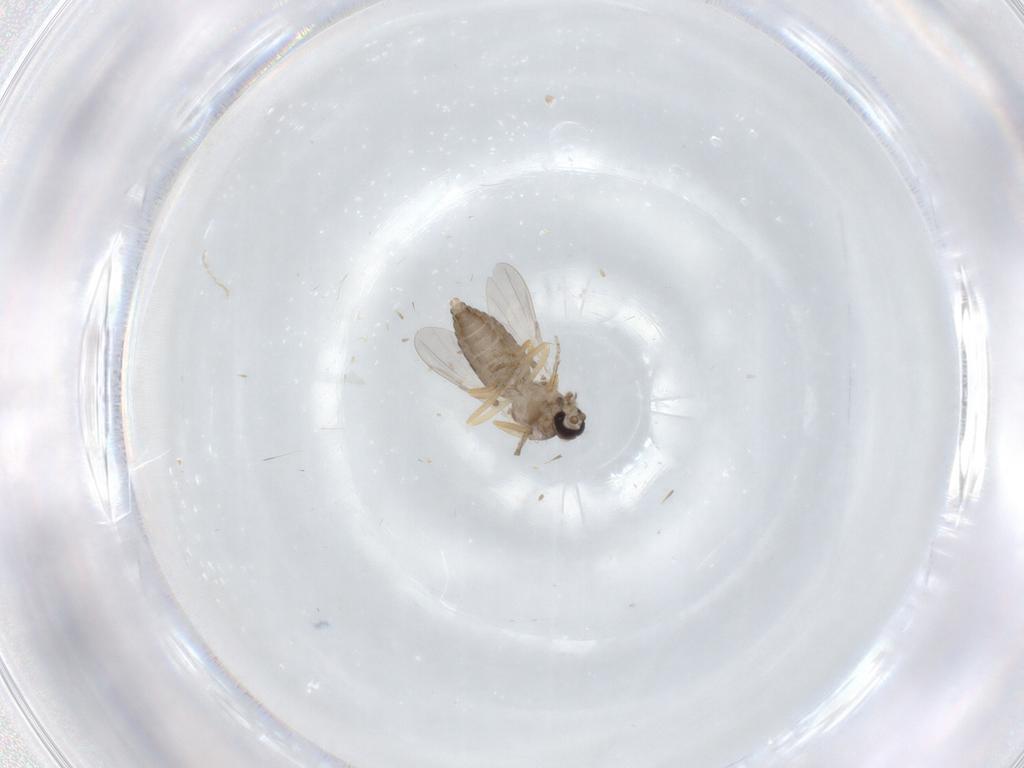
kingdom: Animalia
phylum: Arthropoda
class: Insecta
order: Diptera
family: Ceratopogonidae
